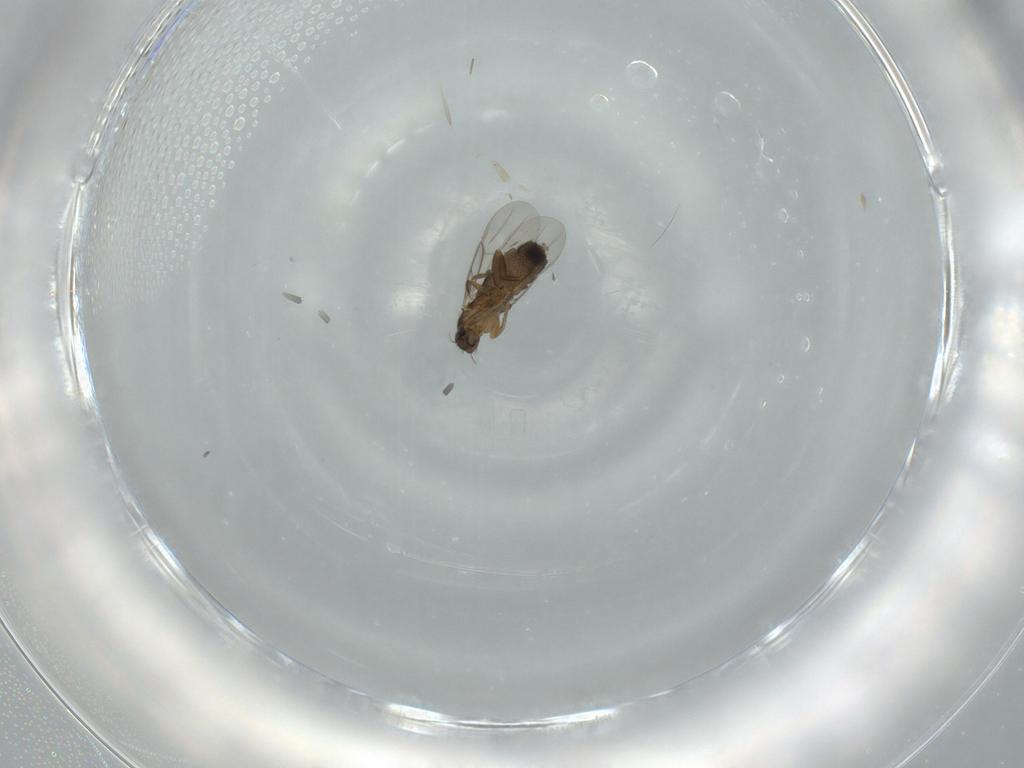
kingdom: Animalia
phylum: Arthropoda
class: Insecta
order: Diptera
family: Phoridae
